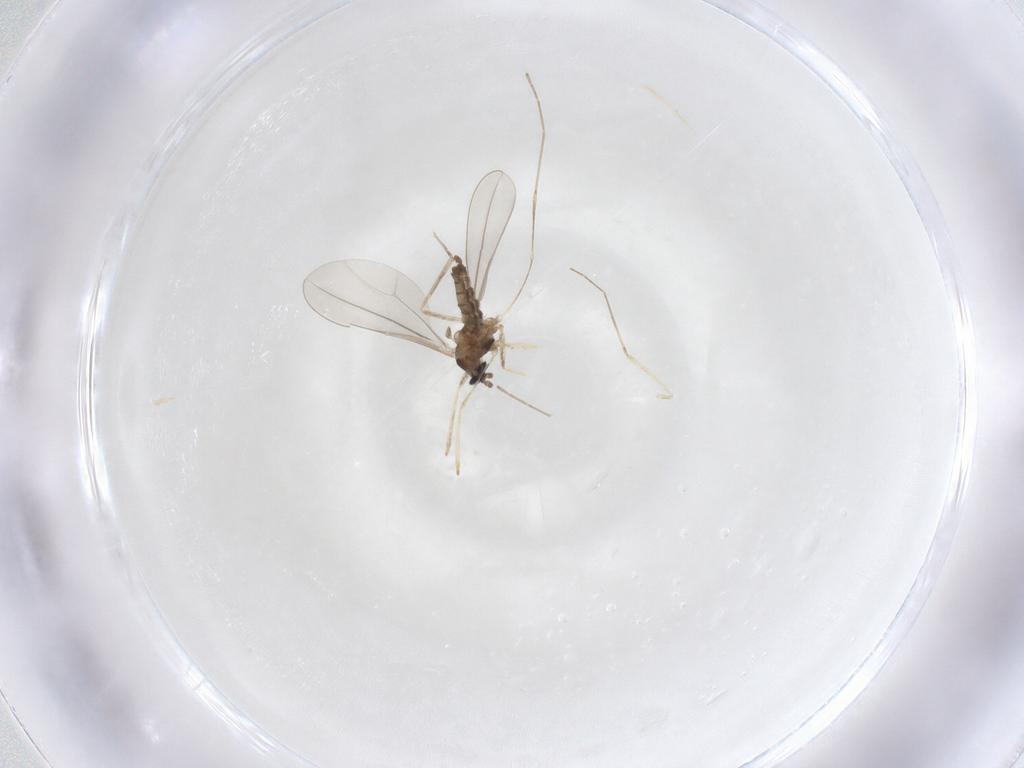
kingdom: Animalia
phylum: Arthropoda
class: Insecta
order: Diptera
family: Cecidomyiidae
